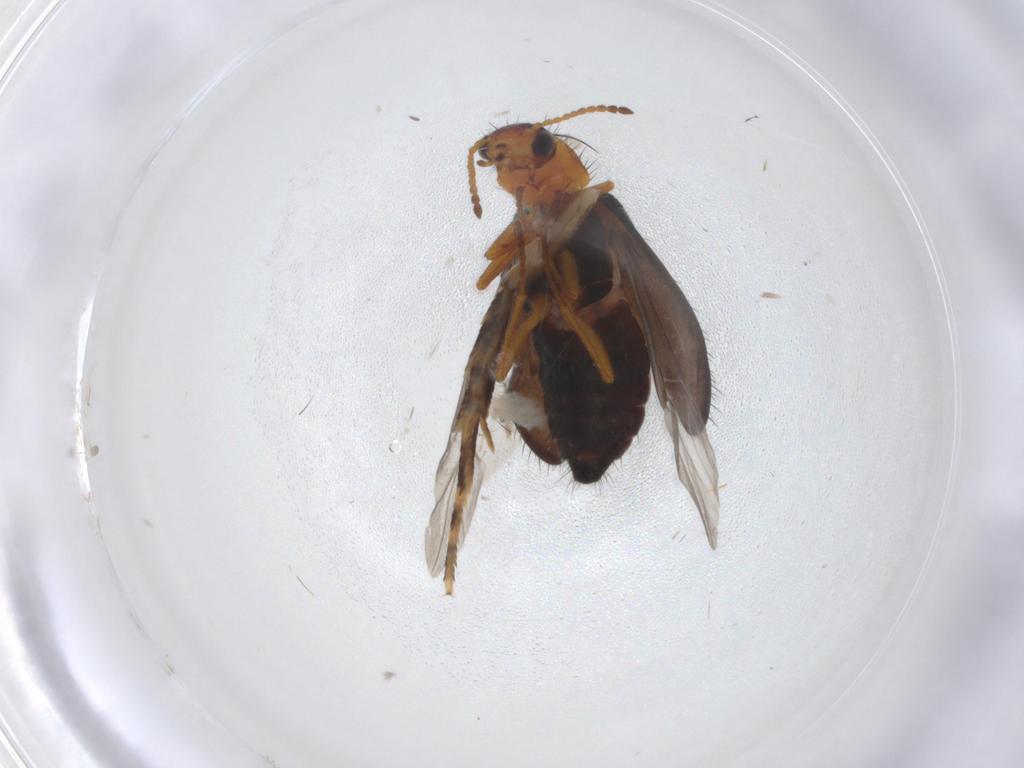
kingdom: Animalia
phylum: Arthropoda
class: Insecta
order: Coleoptera
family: Melyridae
